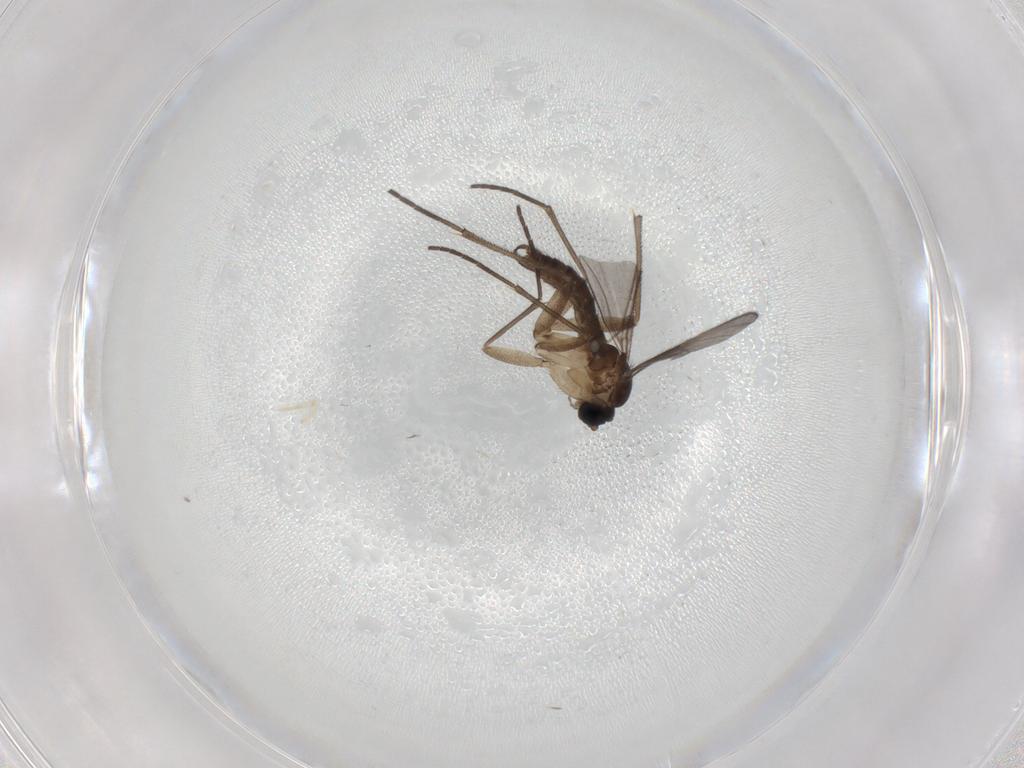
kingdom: Animalia
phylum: Arthropoda
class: Insecta
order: Diptera
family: Sciaridae
